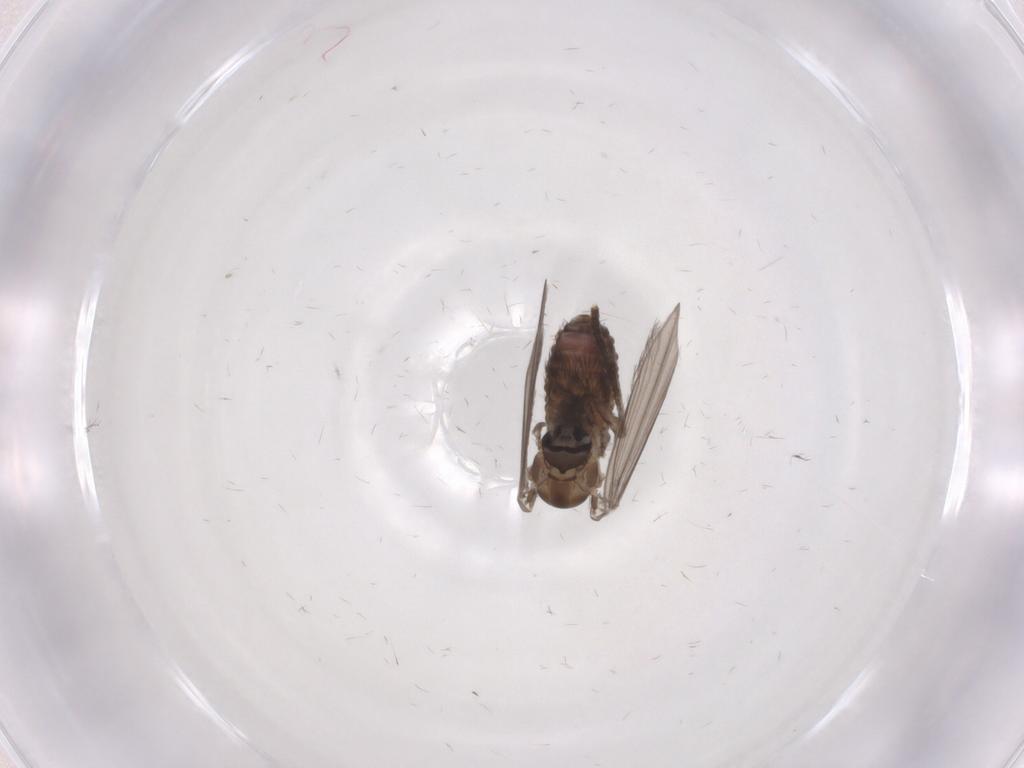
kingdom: Animalia
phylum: Arthropoda
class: Insecta
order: Diptera
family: Psychodidae
